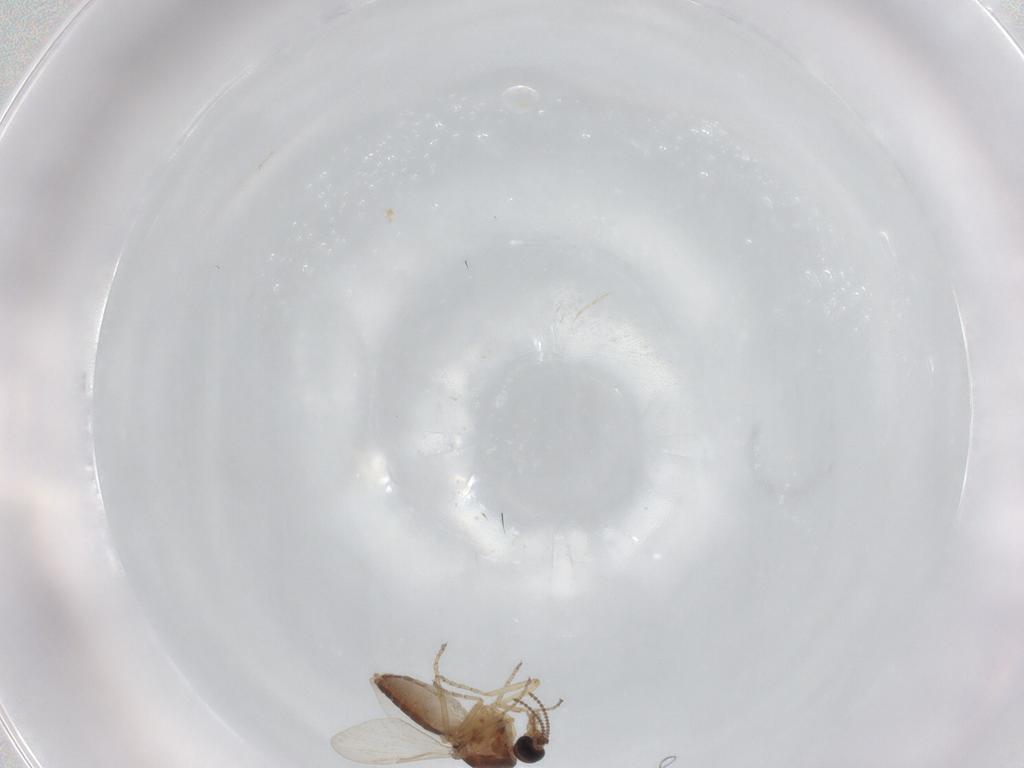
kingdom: Animalia
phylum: Arthropoda
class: Insecta
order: Diptera
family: Ceratopogonidae
